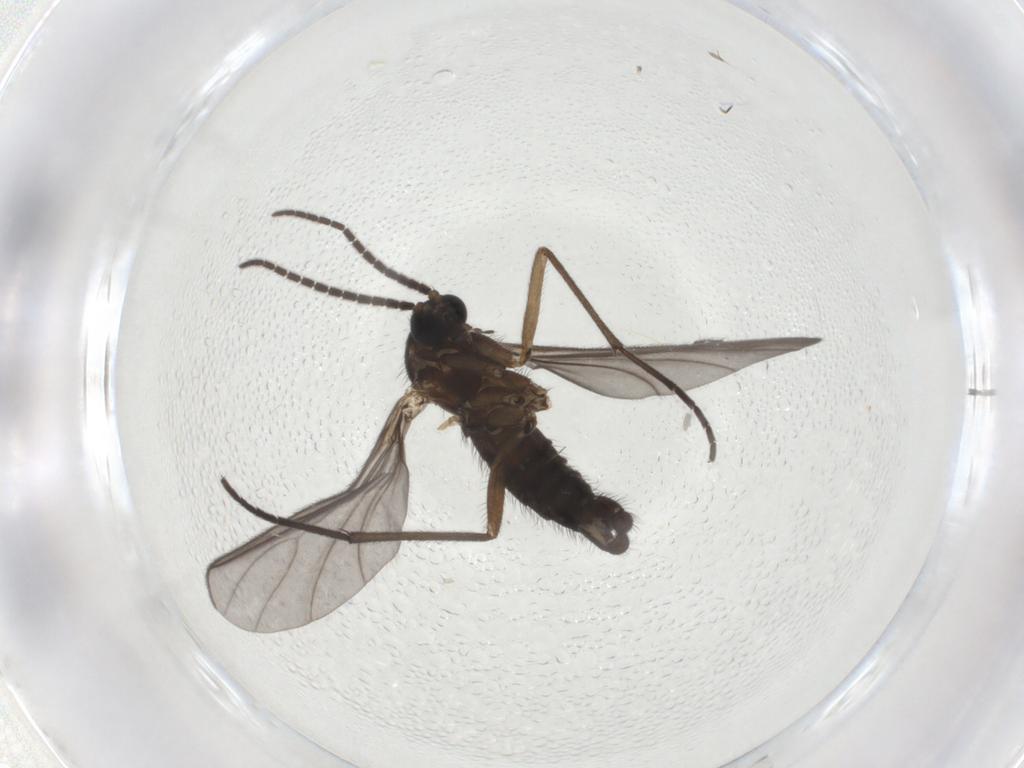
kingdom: Animalia
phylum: Arthropoda
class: Insecta
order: Diptera
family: Sciaridae
